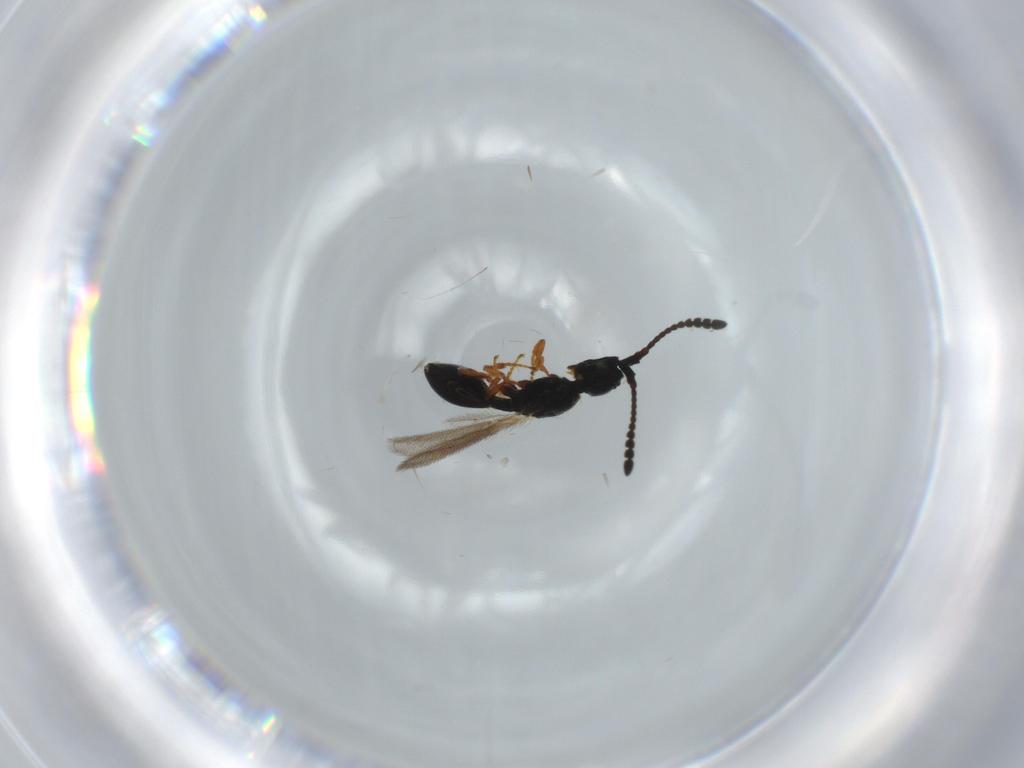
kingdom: Animalia
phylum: Arthropoda
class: Insecta
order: Hymenoptera
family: Diapriidae
